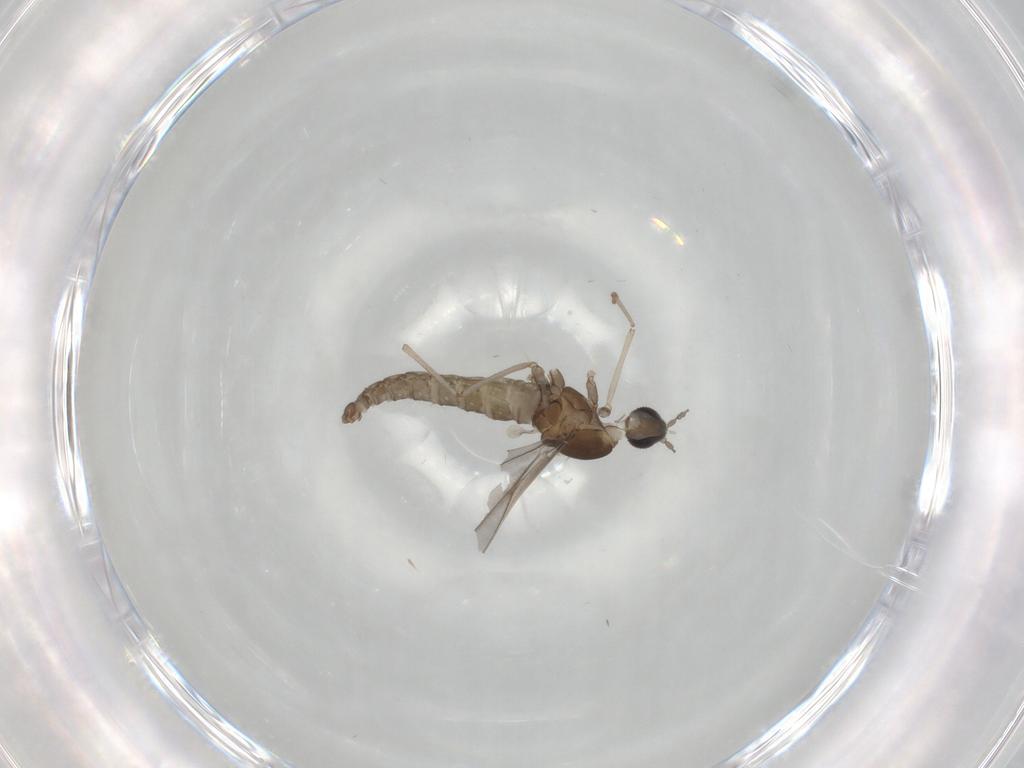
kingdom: Animalia
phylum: Arthropoda
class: Insecta
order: Diptera
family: Cecidomyiidae
